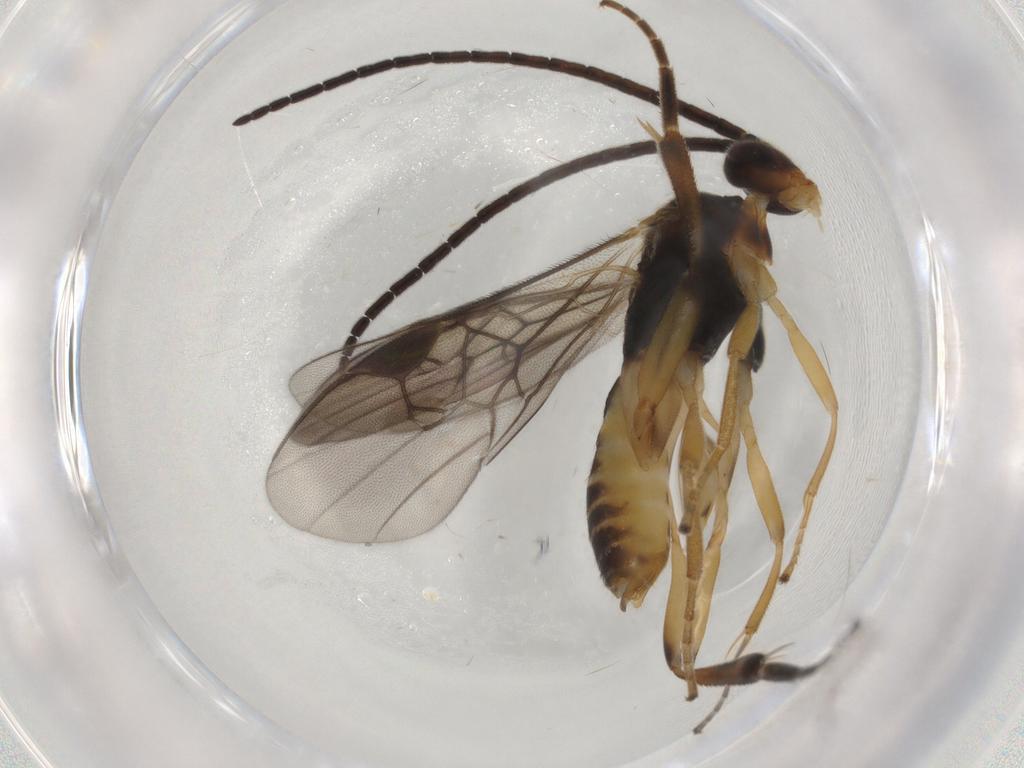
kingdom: Animalia
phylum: Arthropoda
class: Insecta
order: Hymenoptera
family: Braconidae
